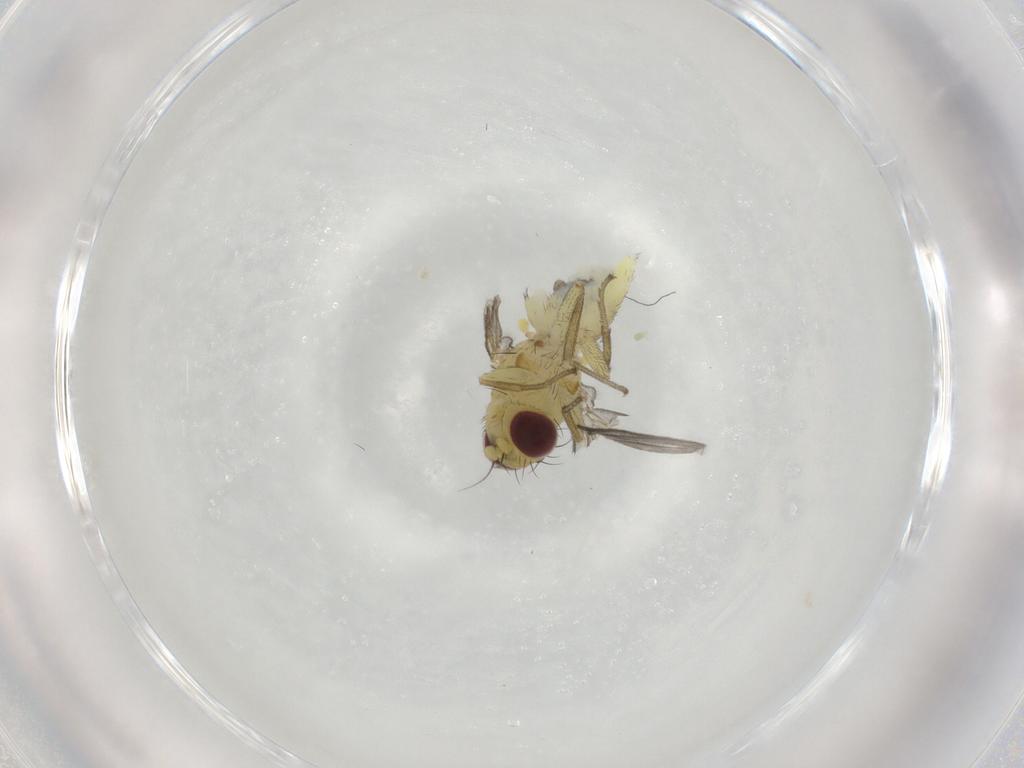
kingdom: Animalia
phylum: Arthropoda
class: Insecta
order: Diptera
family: Agromyzidae
